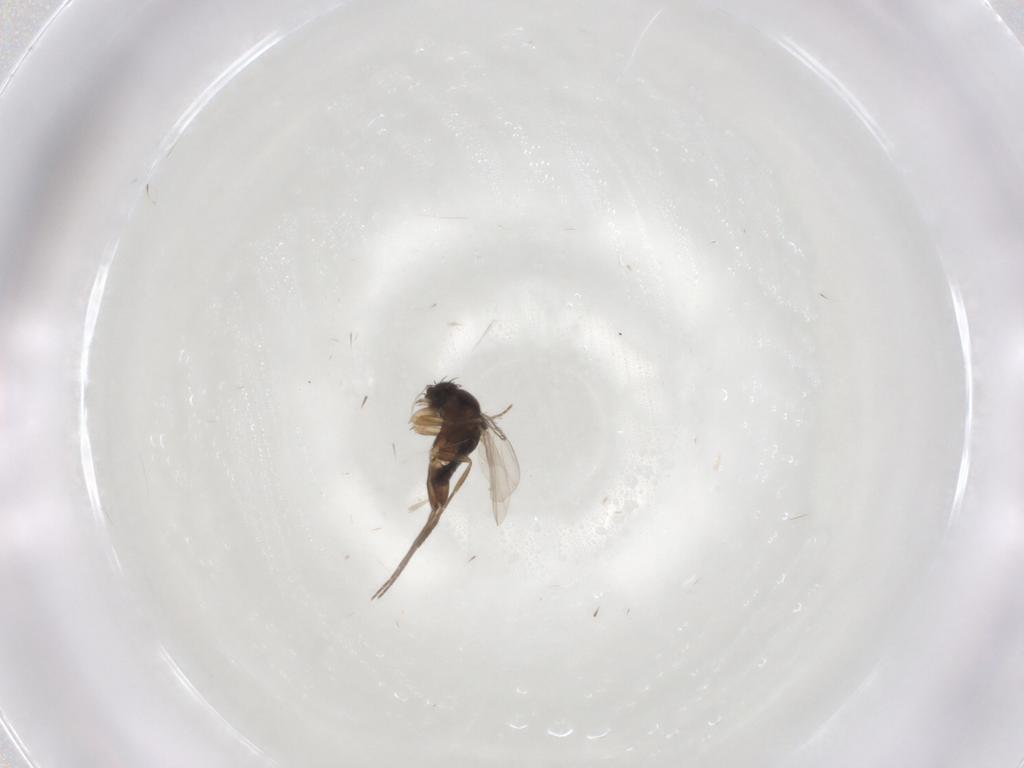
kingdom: Animalia
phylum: Arthropoda
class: Insecta
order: Diptera
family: Phoridae
